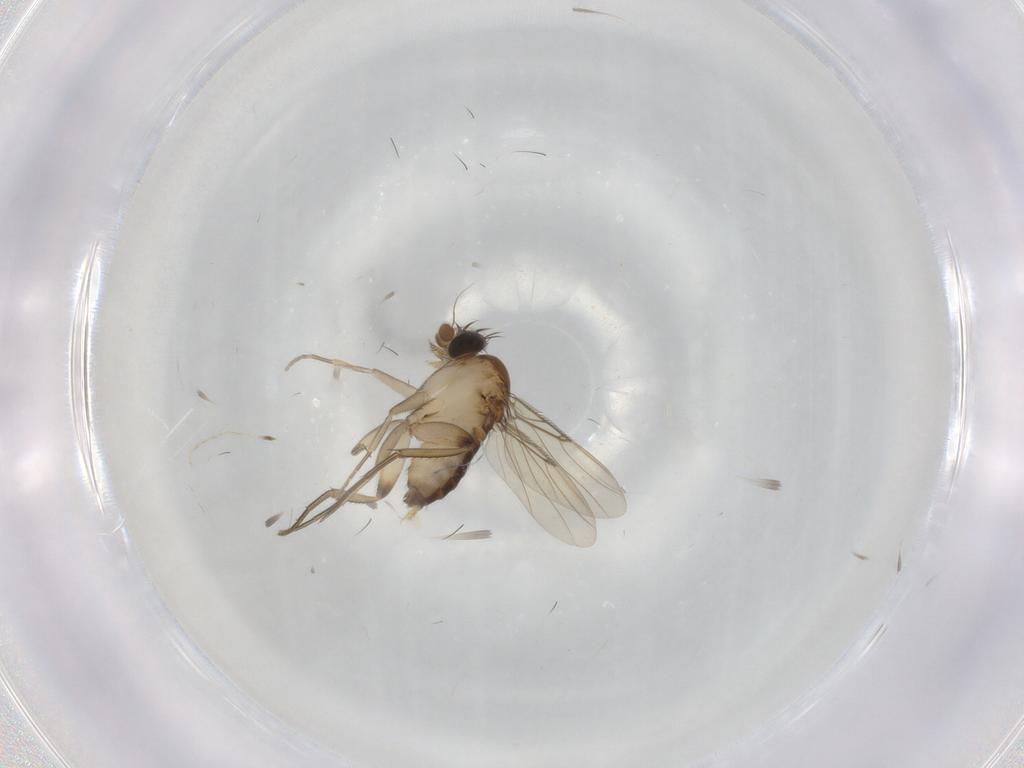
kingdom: Animalia
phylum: Arthropoda
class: Insecta
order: Diptera
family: Phoridae
